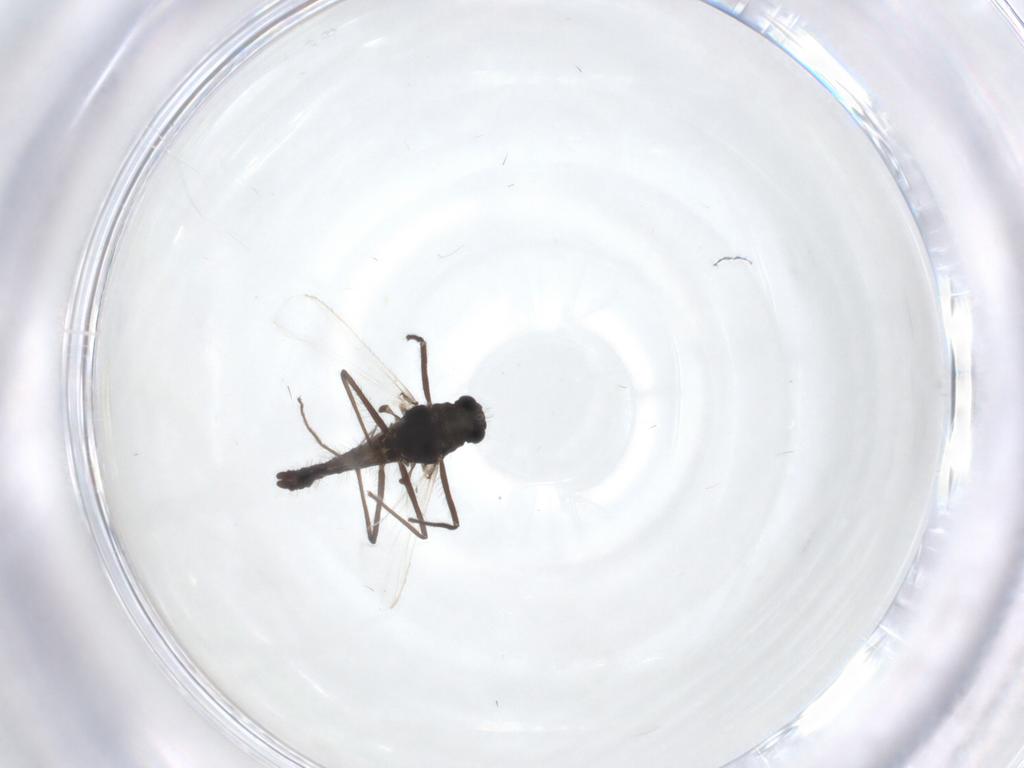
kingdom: Animalia
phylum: Arthropoda
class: Insecta
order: Diptera
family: Ceratopogonidae
